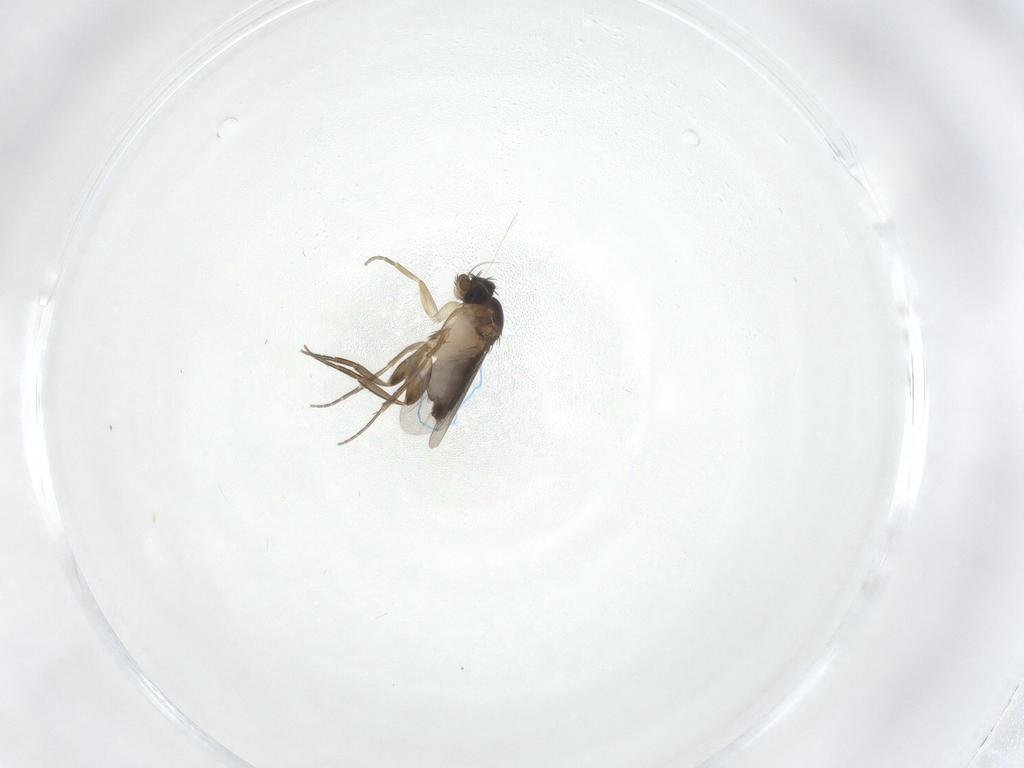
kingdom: Animalia
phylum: Arthropoda
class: Insecta
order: Diptera
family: Phoridae
